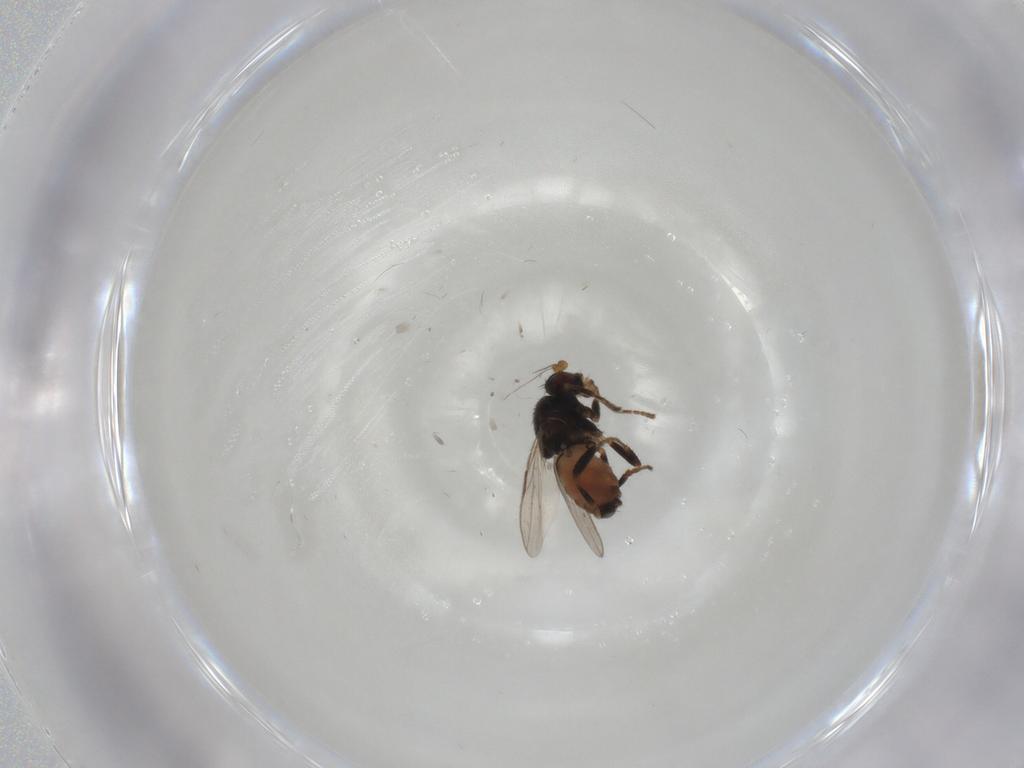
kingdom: Animalia
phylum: Arthropoda
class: Insecta
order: Diptera
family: Sphaeroceridae
